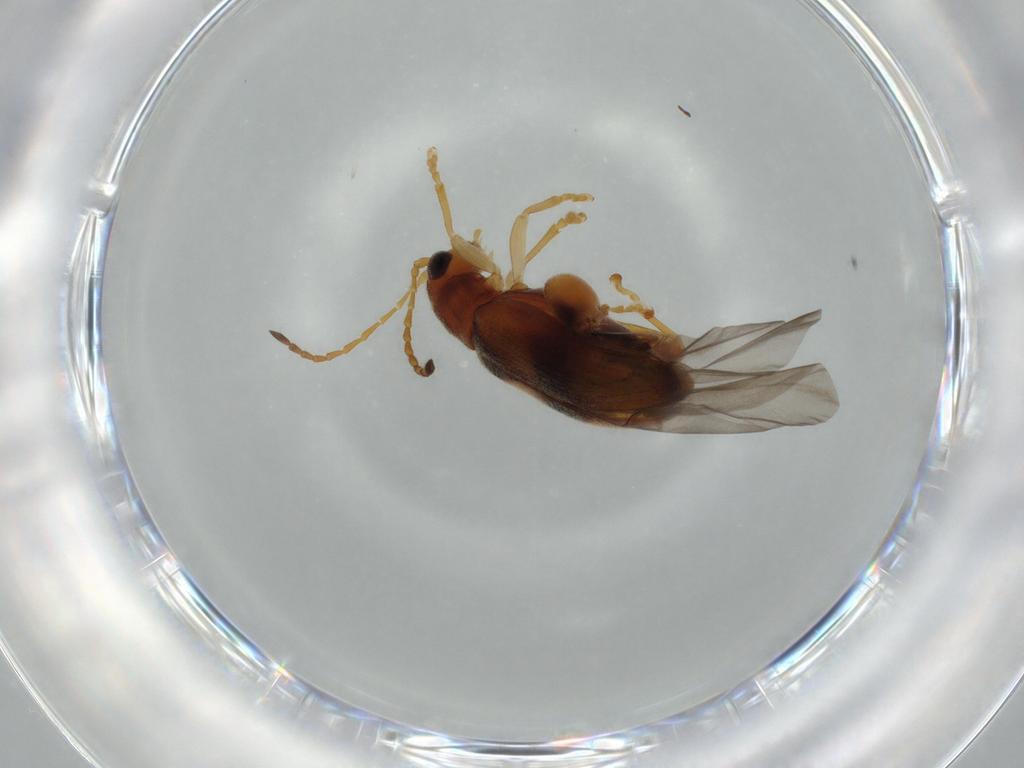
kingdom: Animalia
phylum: Arthropoda
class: Insecta
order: Coleoptera
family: Chrysomelidae
